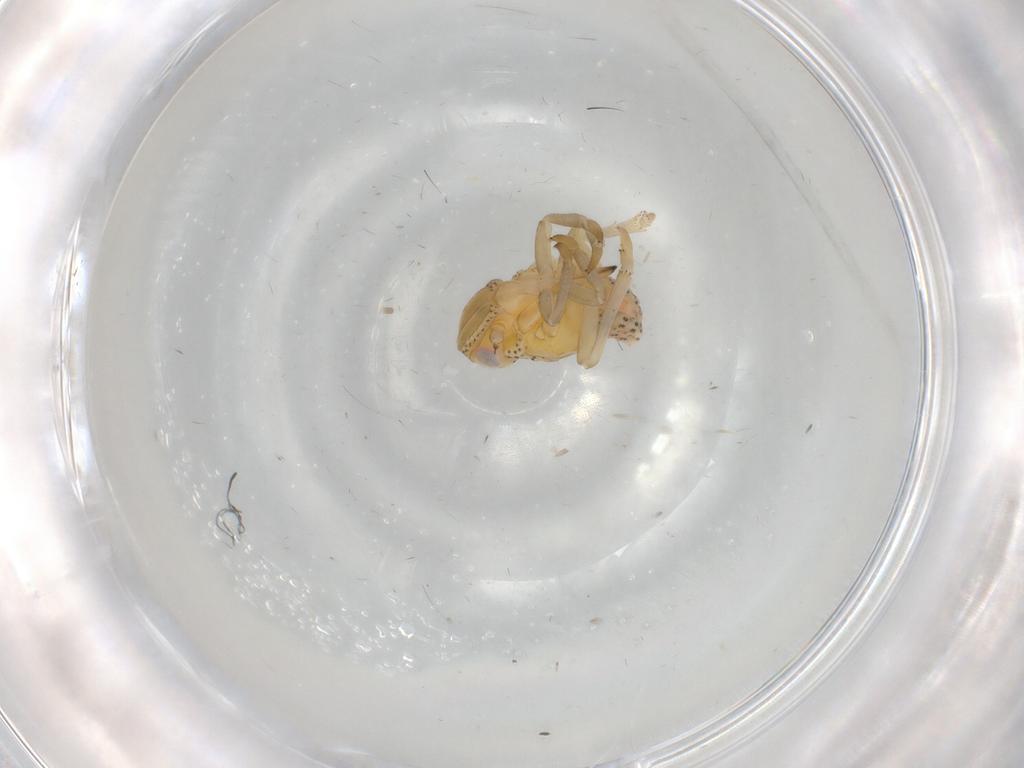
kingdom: Animalia
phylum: Arthropoda
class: Insecta
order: Hemiptera
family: Tropiduchidae
